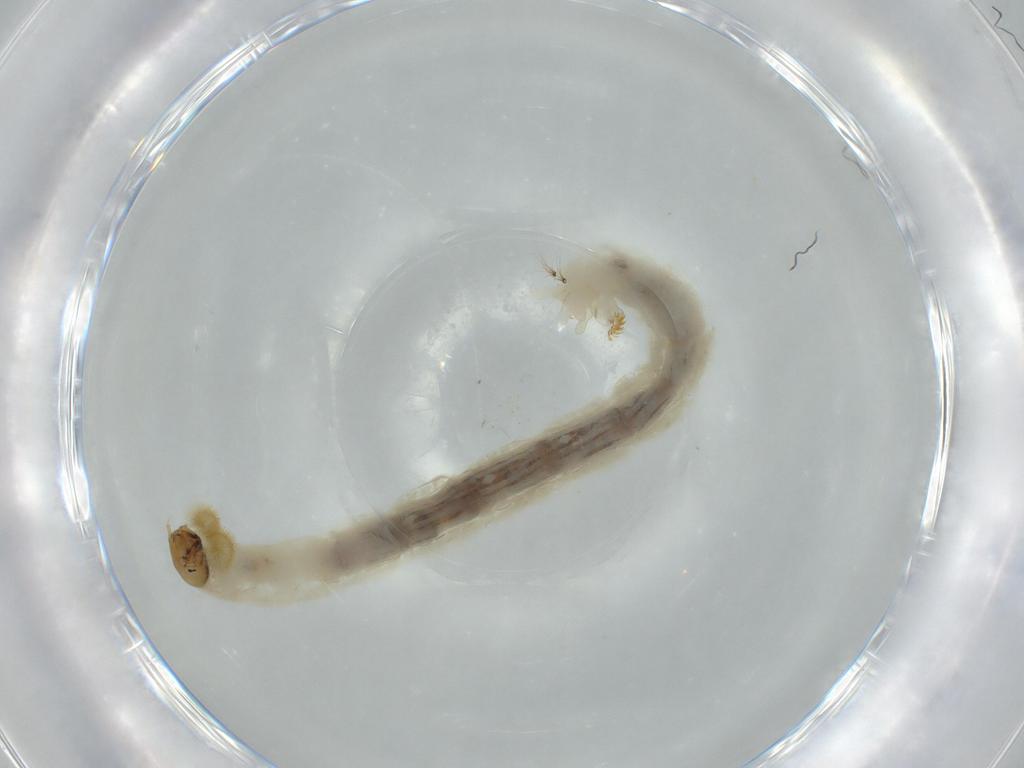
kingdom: Animalia
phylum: Arthropoda
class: Insecta
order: Diptera
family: Chironomidae
